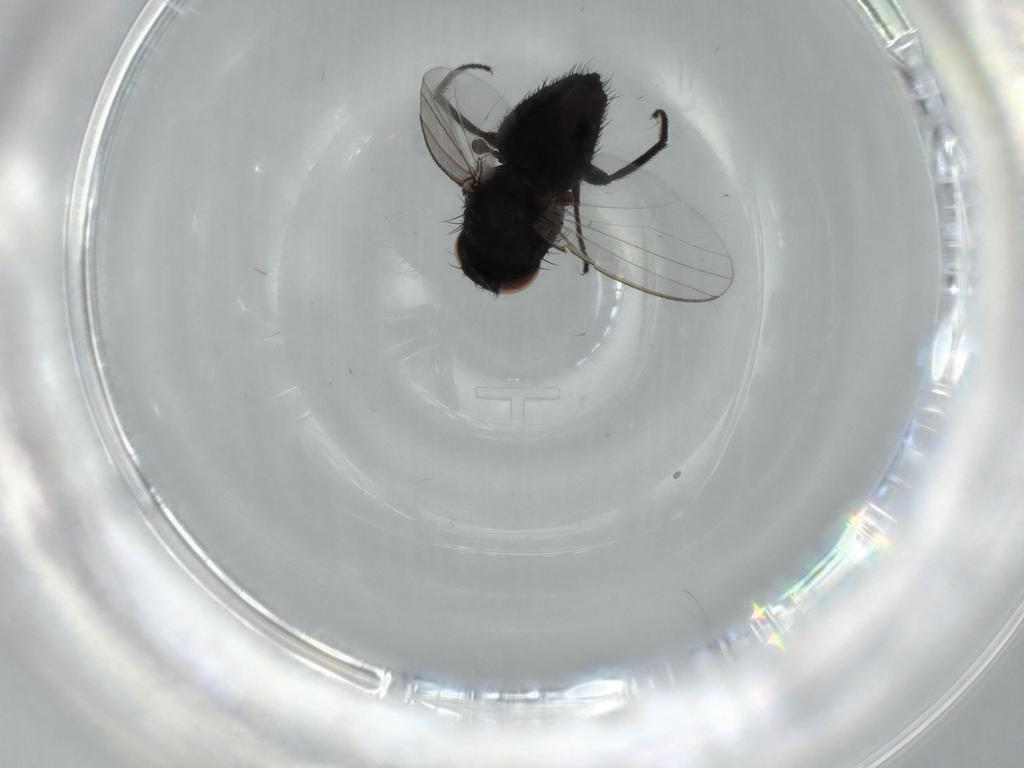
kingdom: Animalia
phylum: Arthropoda
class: Insecta
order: Diptera
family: Milichiidae
